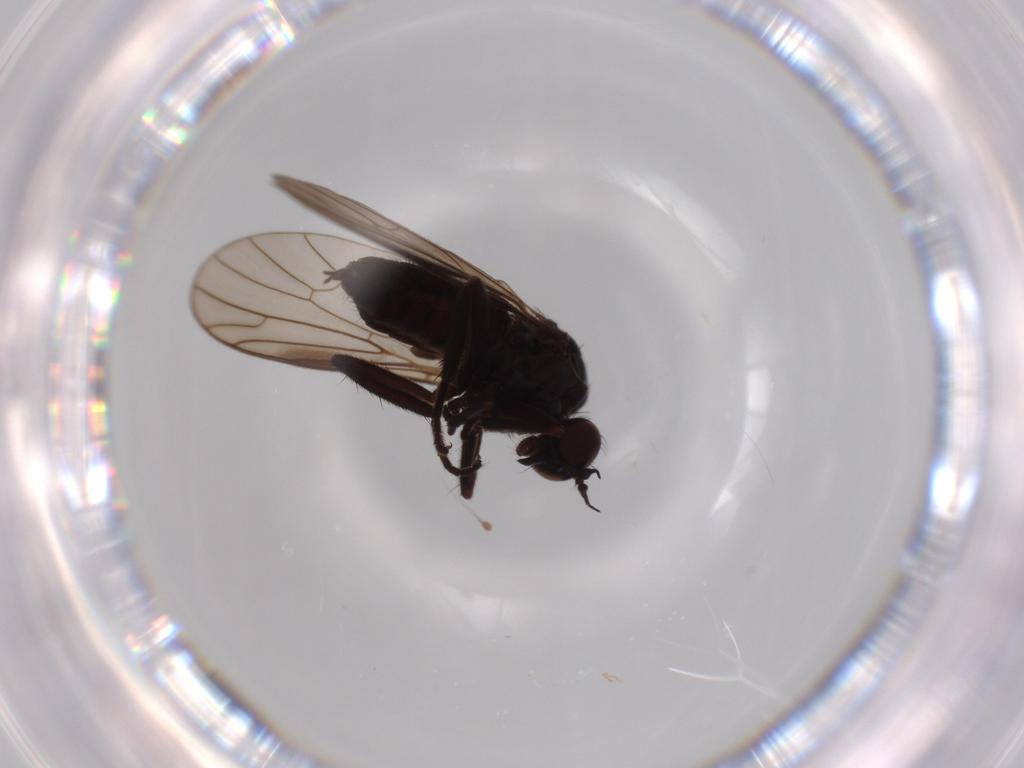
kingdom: Animalia
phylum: Arthropoda
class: Insecta
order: Diptera
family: Empididae
